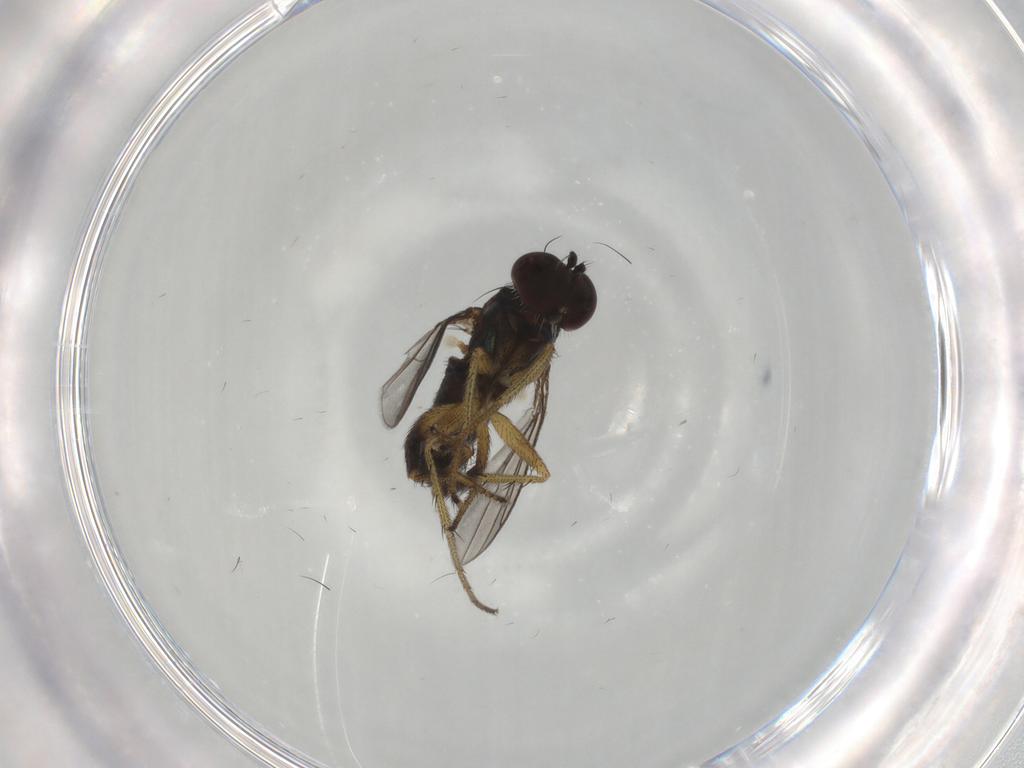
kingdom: Animalia
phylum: Arthropoda
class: Insecta
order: Diptera
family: Dolichopodidae
